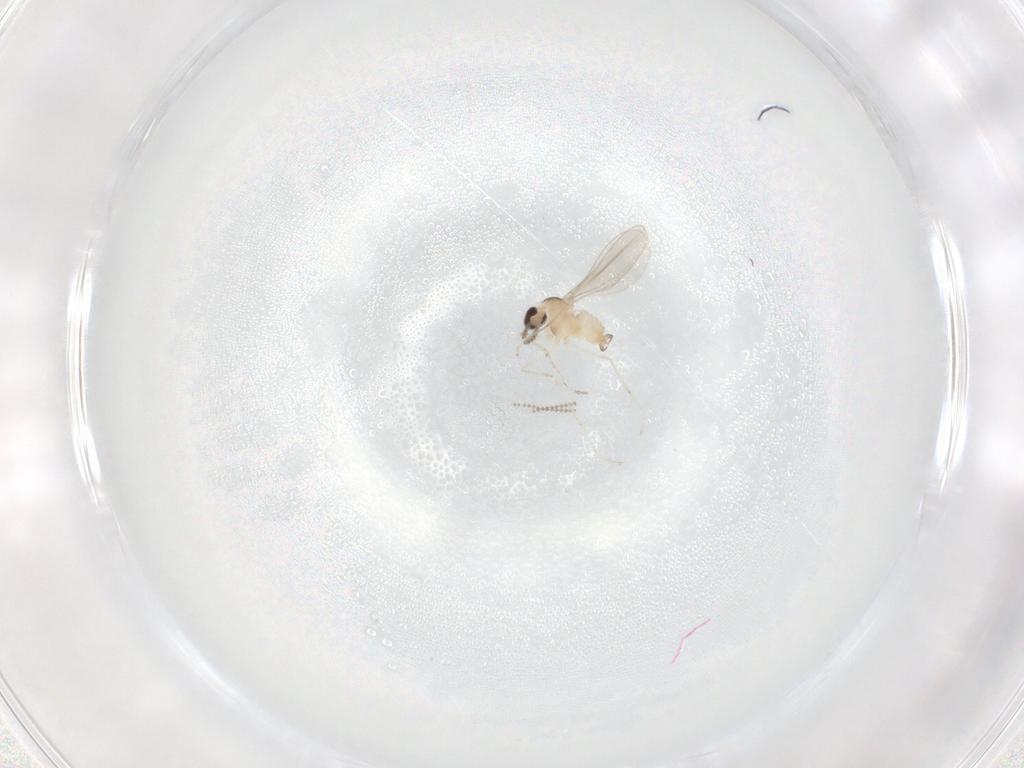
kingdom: Animalia
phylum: Arthropoda
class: Insecta
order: Diptera
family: Cecidomyiidae
